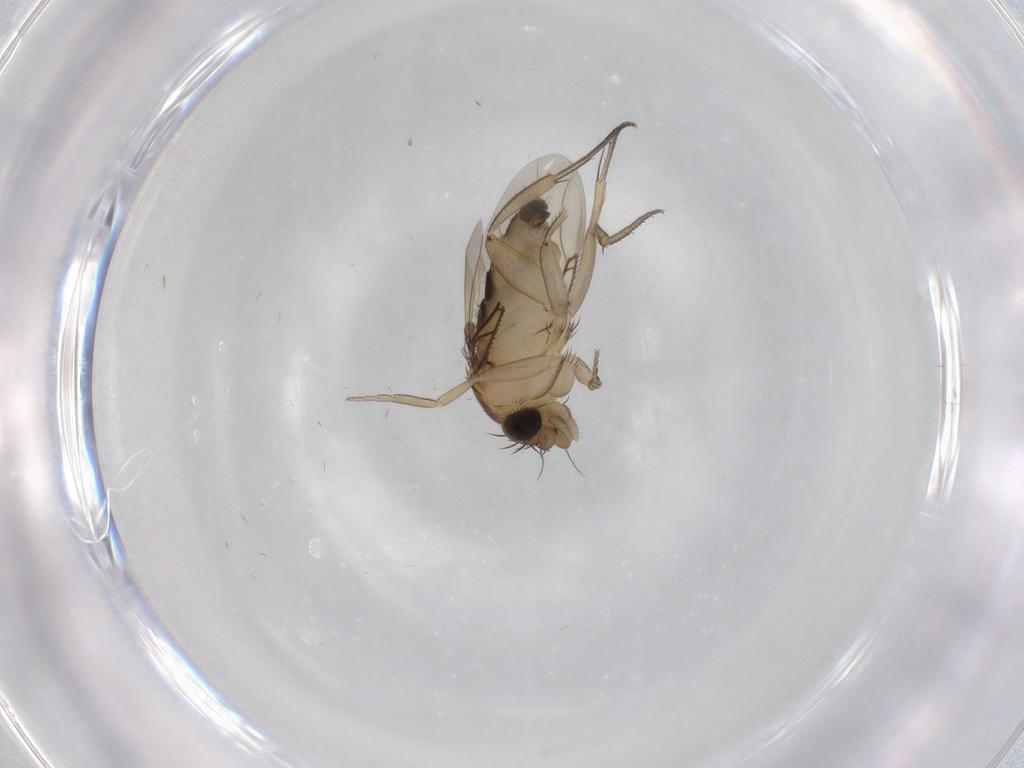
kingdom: Animalia
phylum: Arthropoda
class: Insecta
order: Diptera
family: Phoridae
